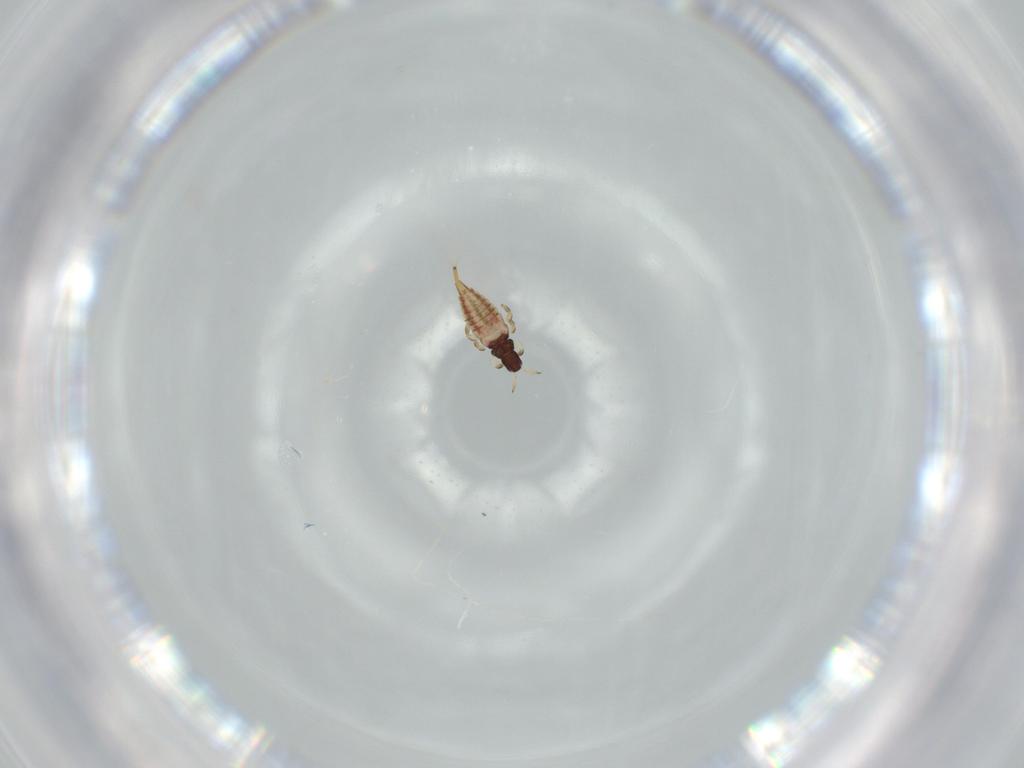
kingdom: Animalia
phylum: Arthropoda
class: Insecta
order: Thysanoptera
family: Phlaeothripidae
